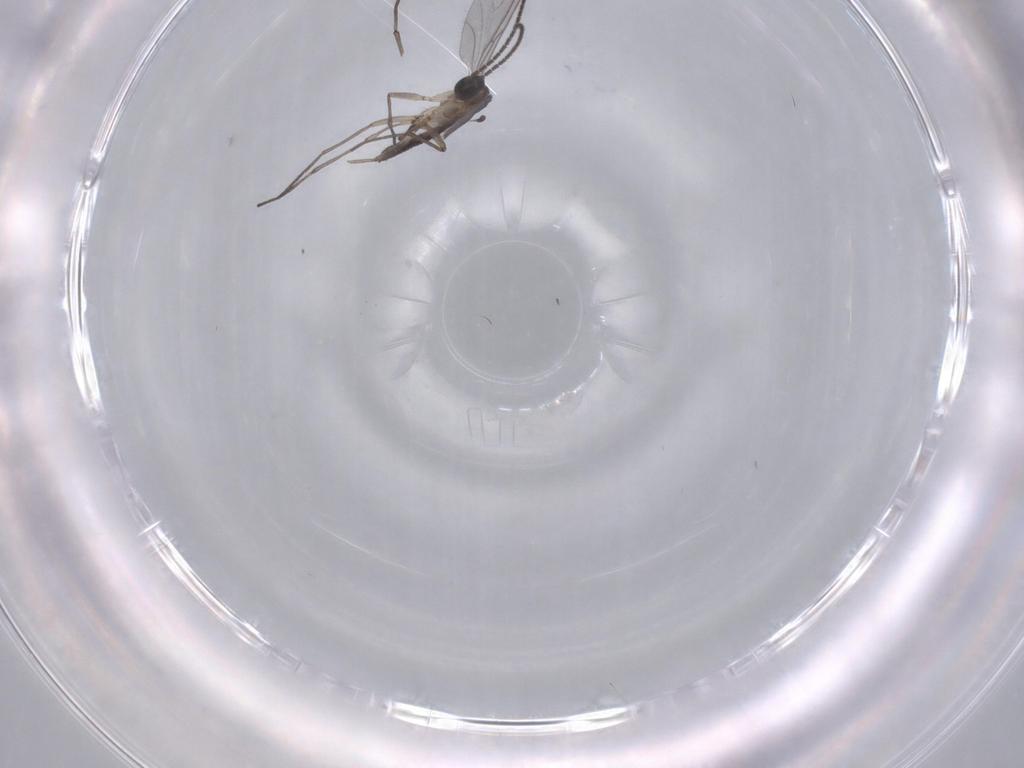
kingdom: Animalia
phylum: Arthropoda
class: Insecta
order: Diptera
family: Sciaridae
